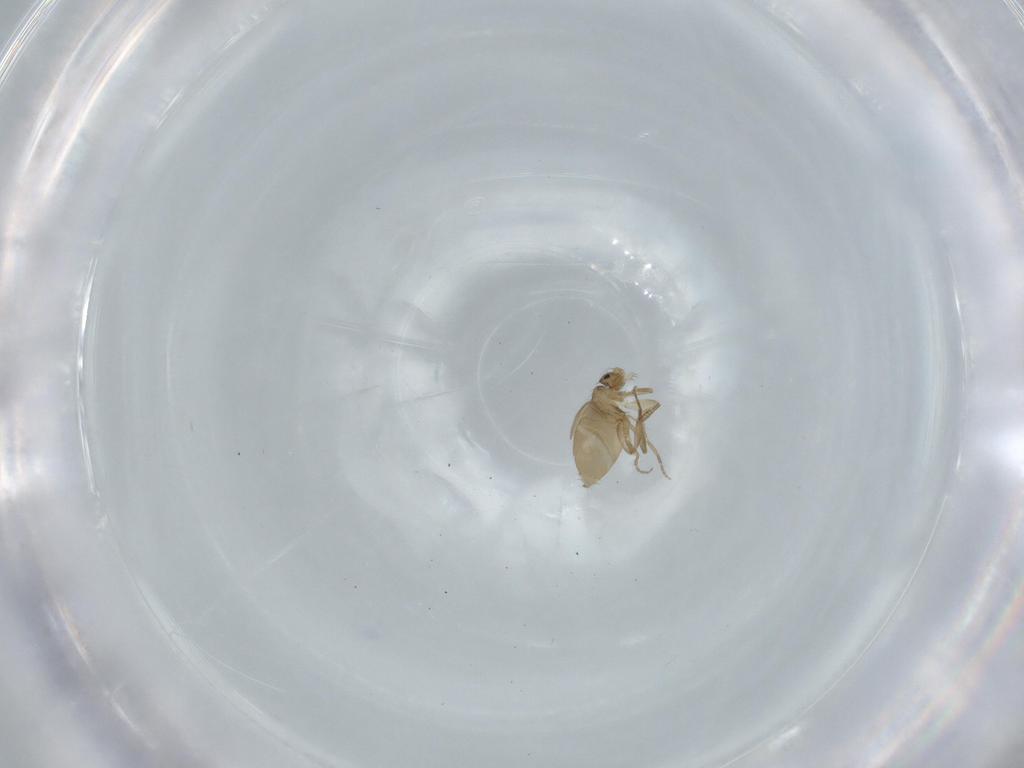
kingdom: Animalia
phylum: Arthropoda
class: Insecta
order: Diptera
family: Phoridae
